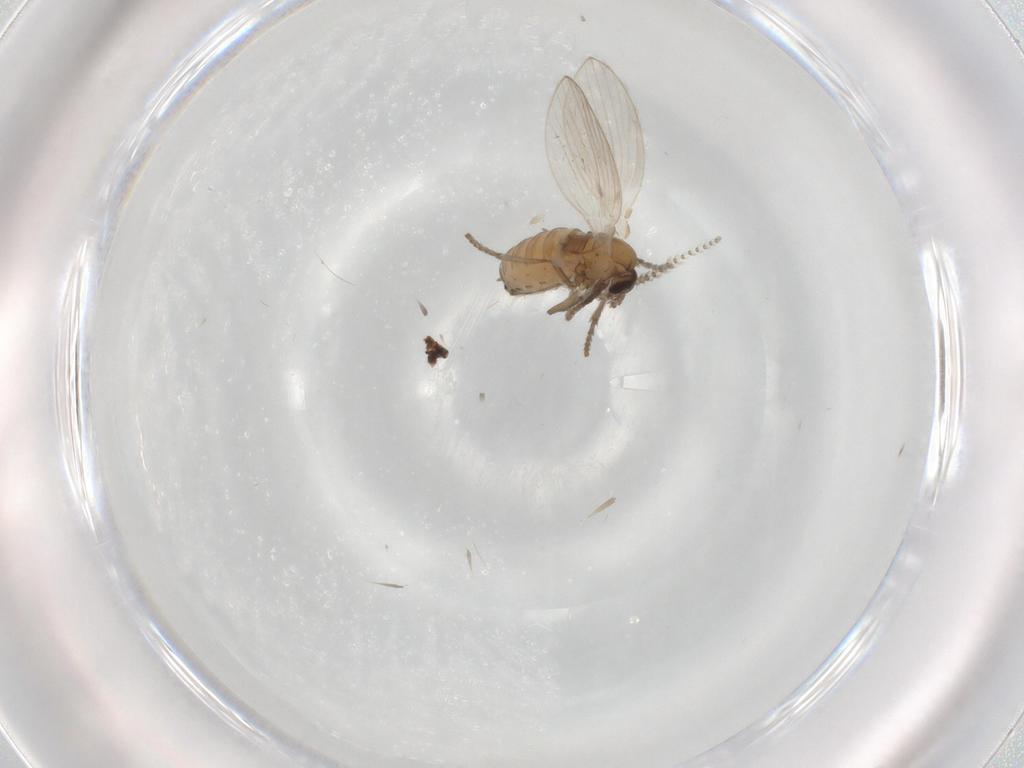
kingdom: Animalia
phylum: Arthropoda
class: Insecta
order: Diptera
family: Psychodidae
